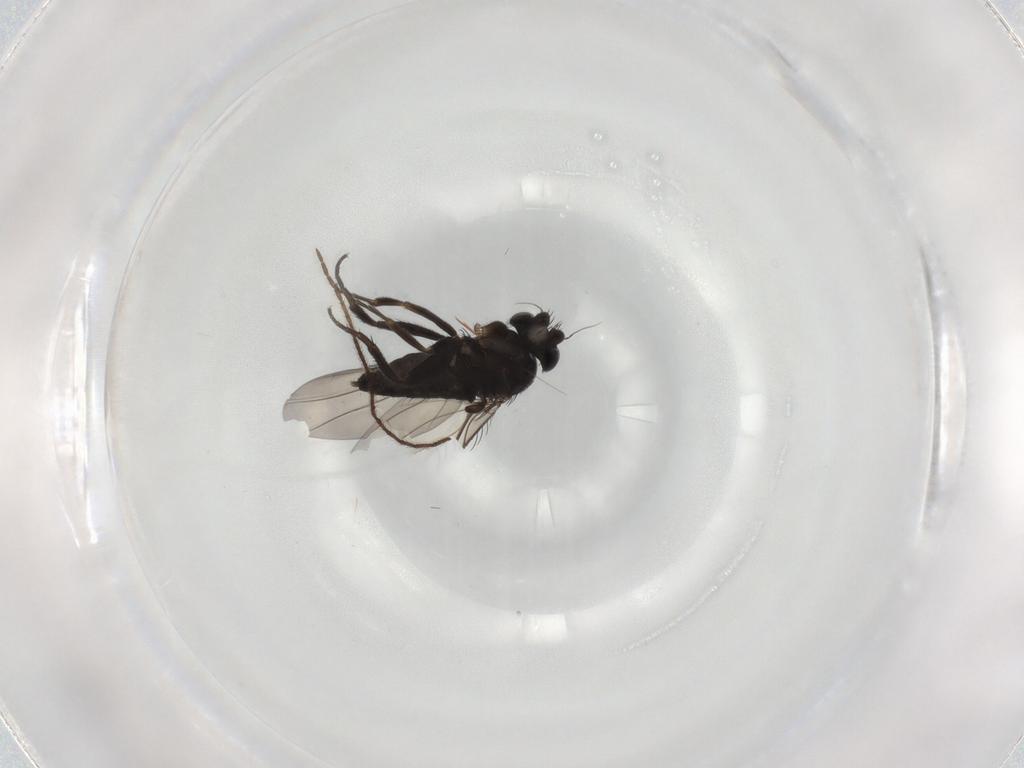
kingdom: Animalia
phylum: Arthropoda
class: Insecta
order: Diptera
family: Phoridae
